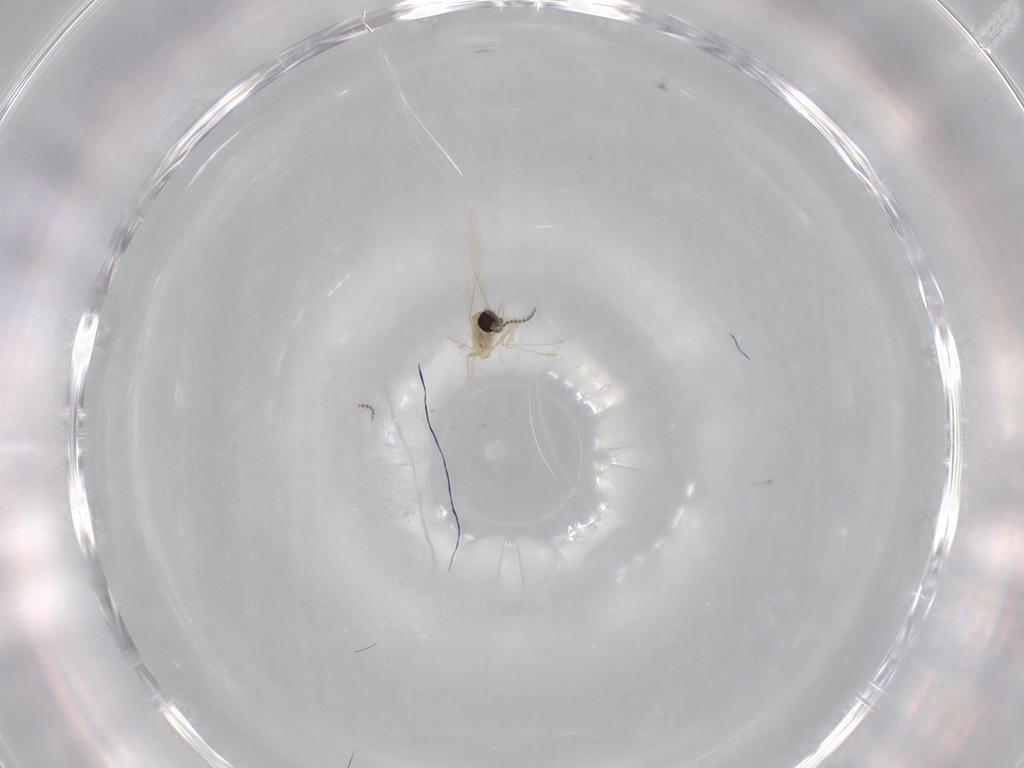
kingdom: Animalia
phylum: Arthropoda
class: Insecta
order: Diptera
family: Cecidomyiidae
